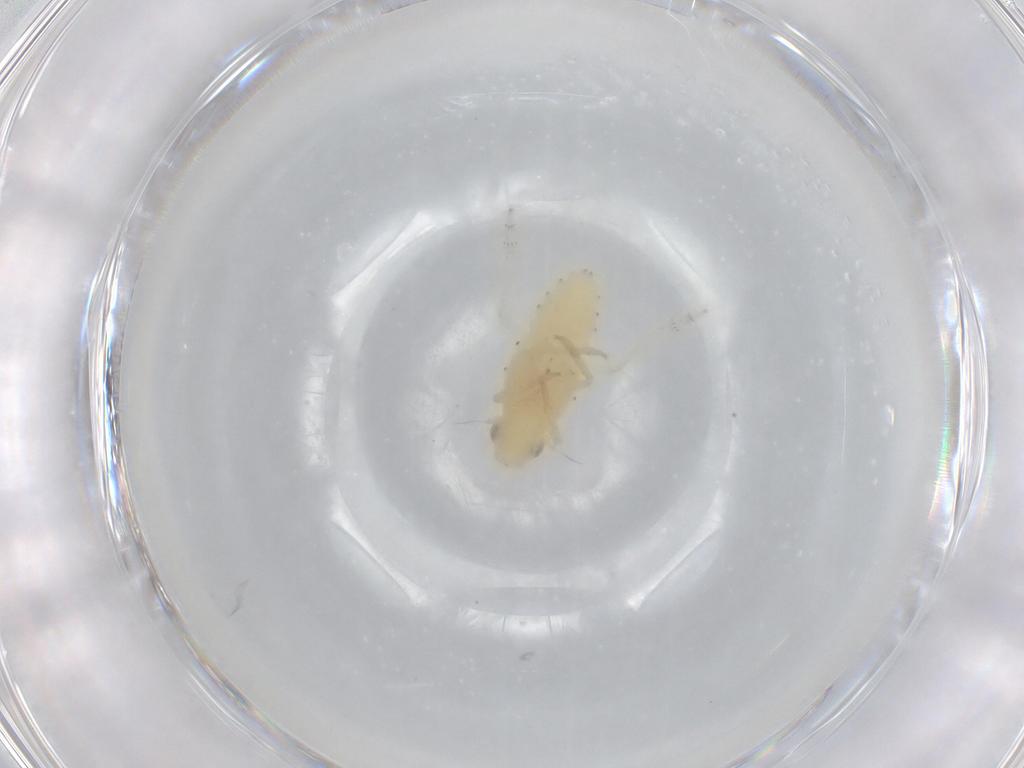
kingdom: Animalia
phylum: Arthropoda
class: Insecta
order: Hemiptera
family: Tropiduchidae
